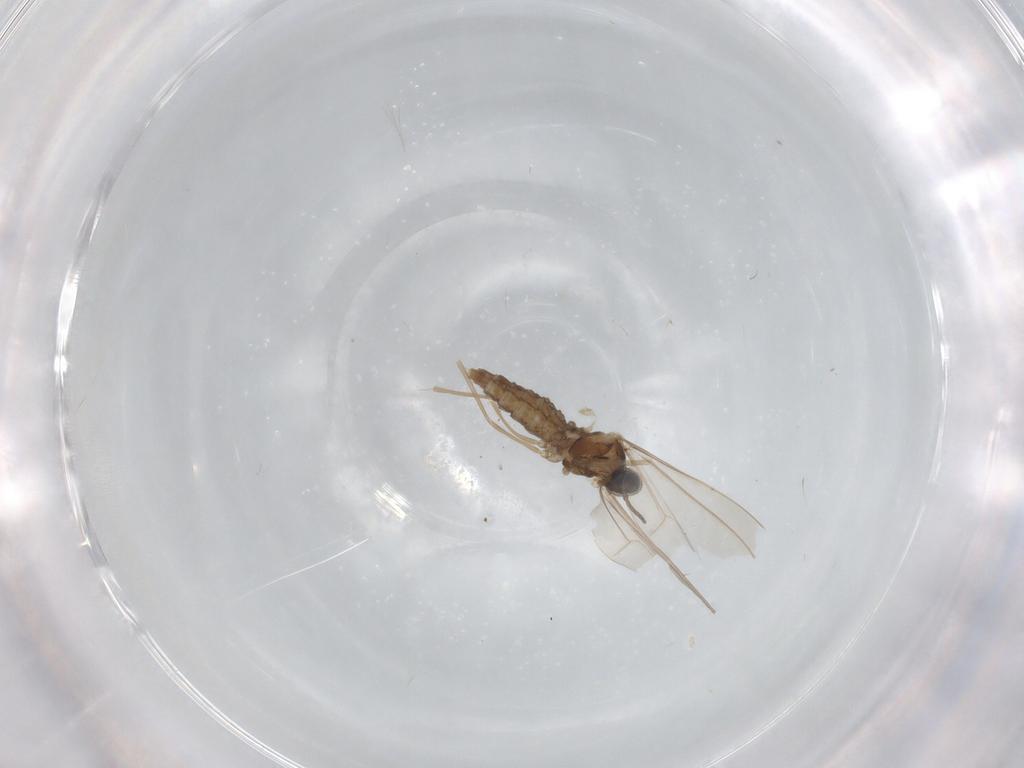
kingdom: Animalia
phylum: Arthropoda
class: Insecta
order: Diptera
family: Cecidomyiidae
